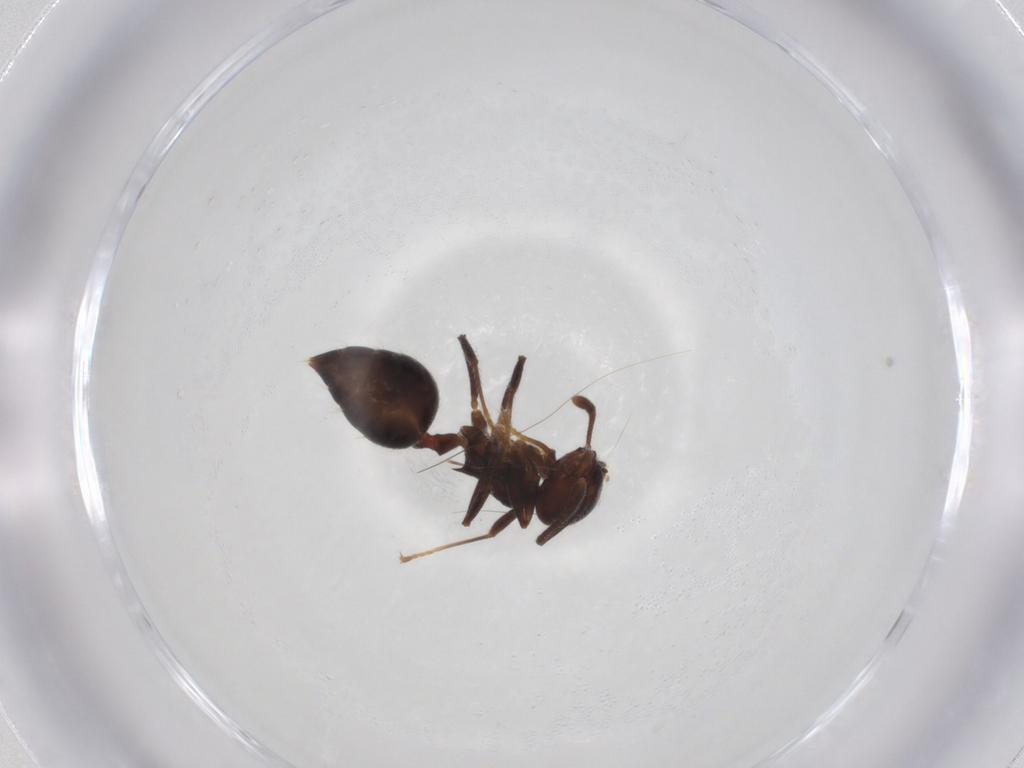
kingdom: Animalia
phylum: Arthropoda
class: Insecta
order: Hymenoptera
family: Formicidae
